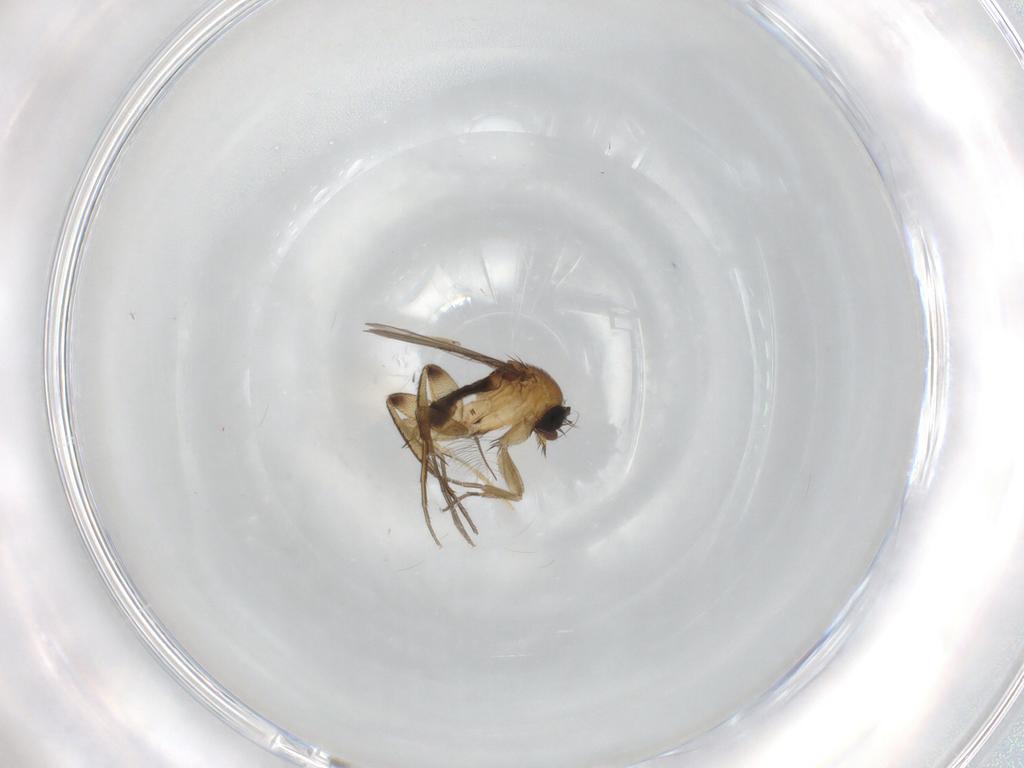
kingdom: Animalia
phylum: Arthropoda
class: Insecta
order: Diptera
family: Phoridae
